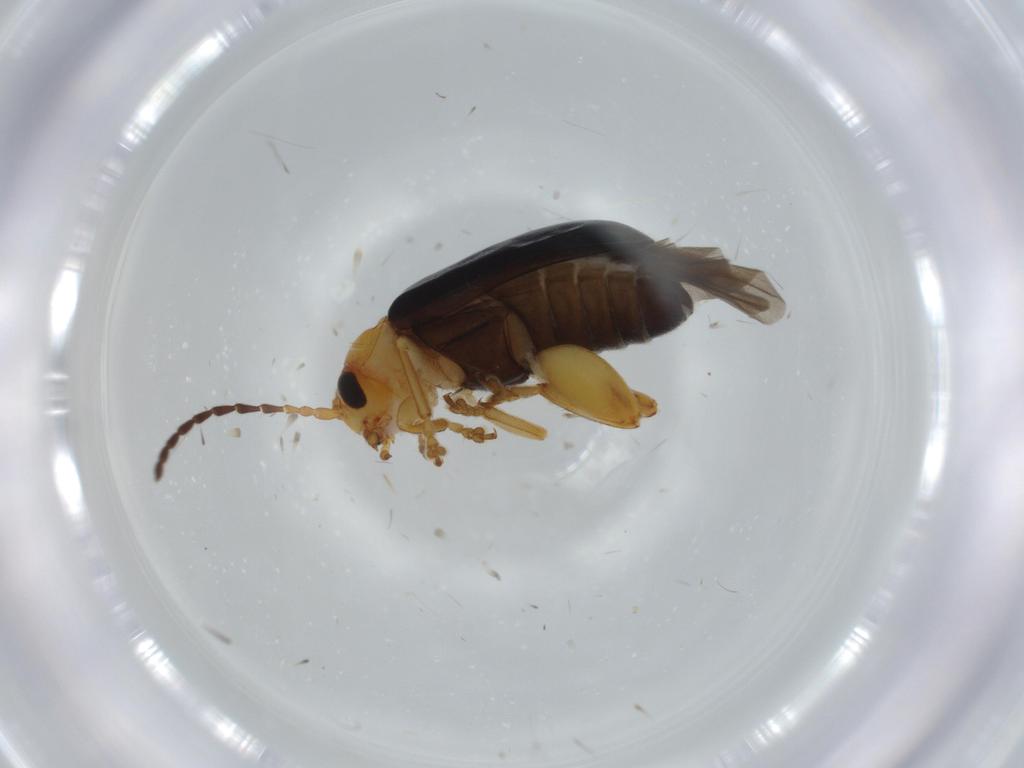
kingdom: Animalia
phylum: Arthropoda
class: Insecta
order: Coleoptera
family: Chrysomelidae
